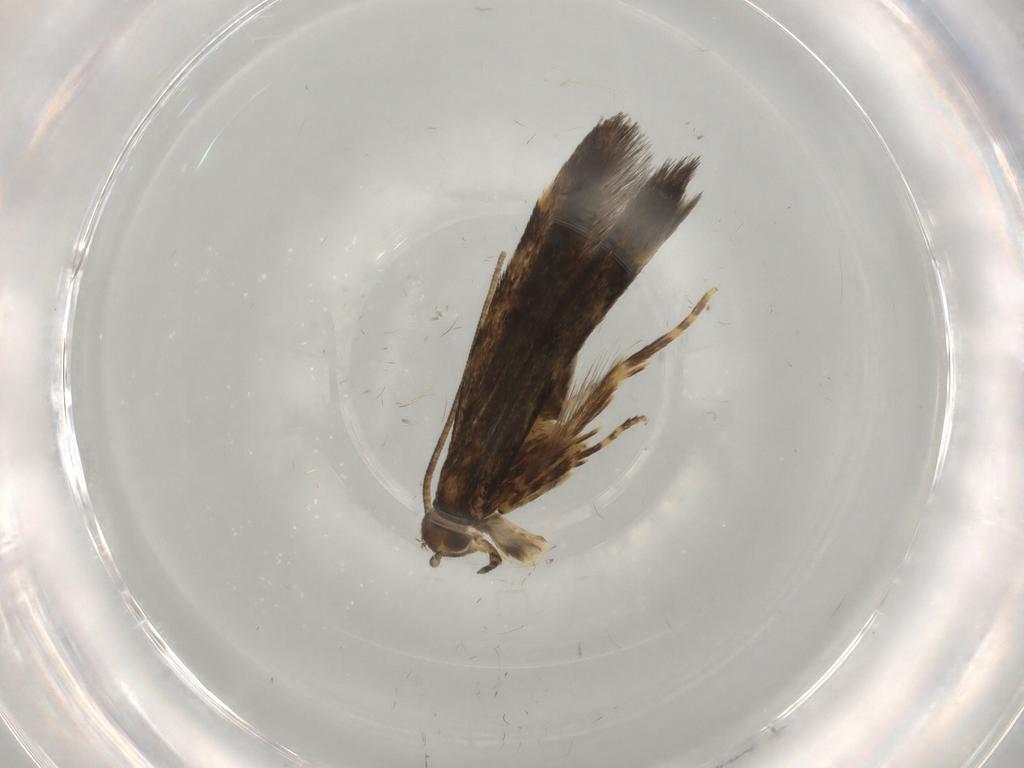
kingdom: Animalia
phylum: Arthropoda
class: Insecta
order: Lepidoptera
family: Oecophoridae
